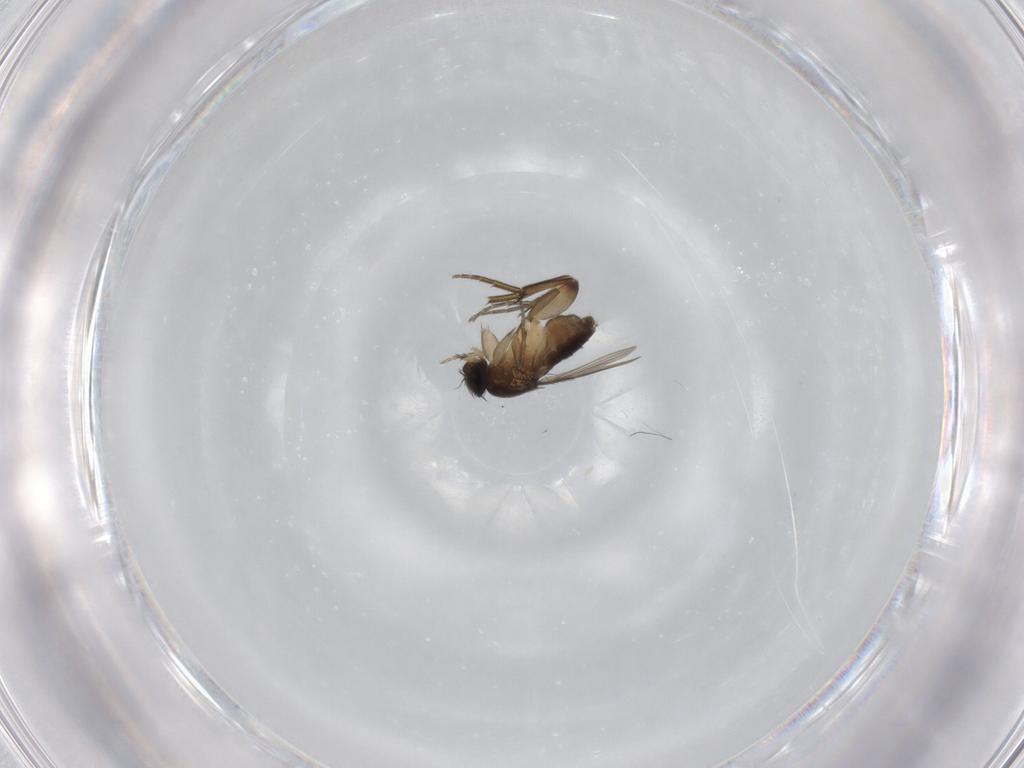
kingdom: Animalia
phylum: Arthropoda
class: Insecta
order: Diptera
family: Phoridae
